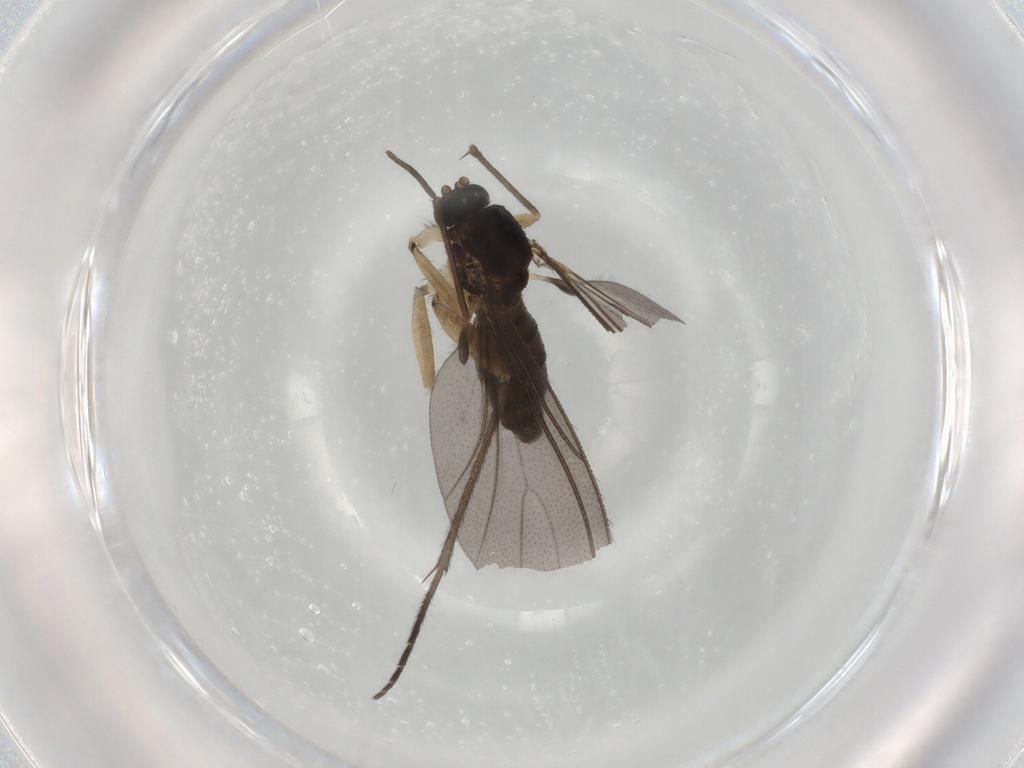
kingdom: Animalia
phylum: Arthropoda
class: Insecta
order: Diptera
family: Sciaridae
